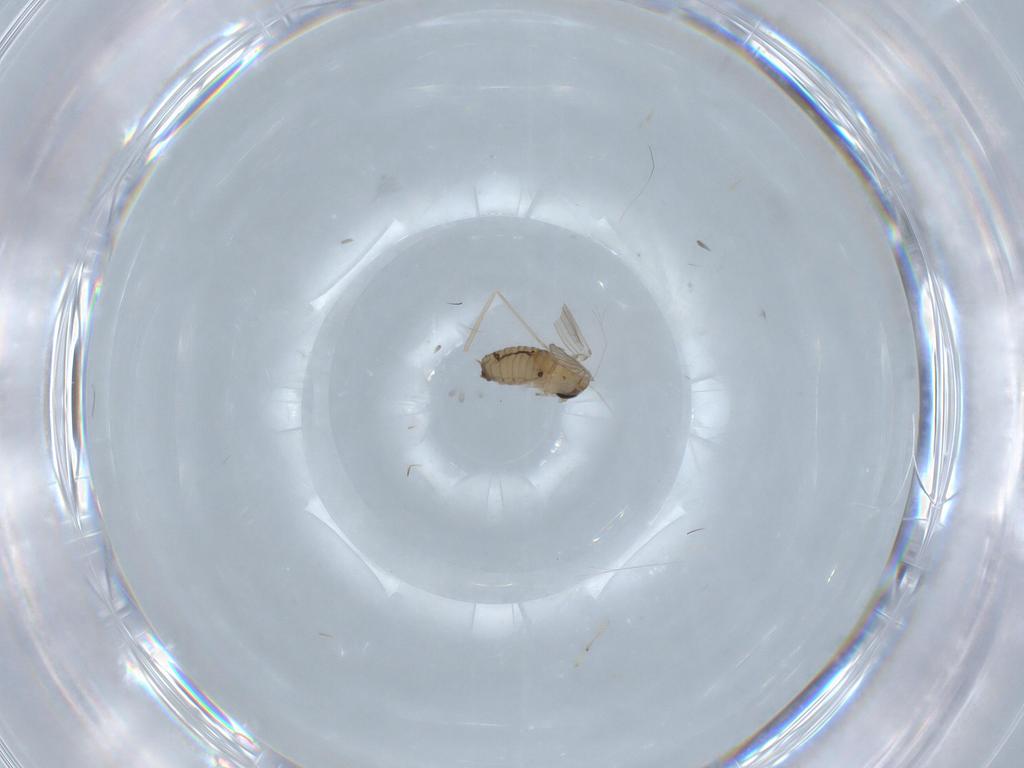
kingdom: Animalia
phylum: Arthropoda
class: Insecta
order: Diptera
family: Psychodidae
